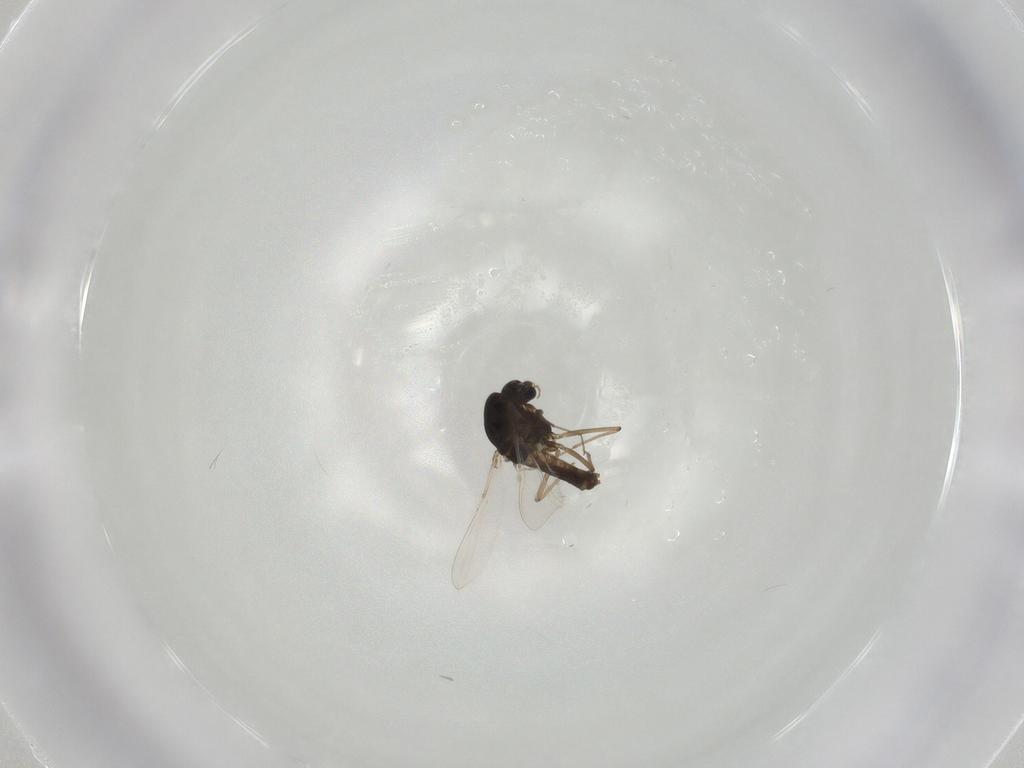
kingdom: Animalia
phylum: Arthropoda
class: Insecta
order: Diptera
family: Chironomidae
